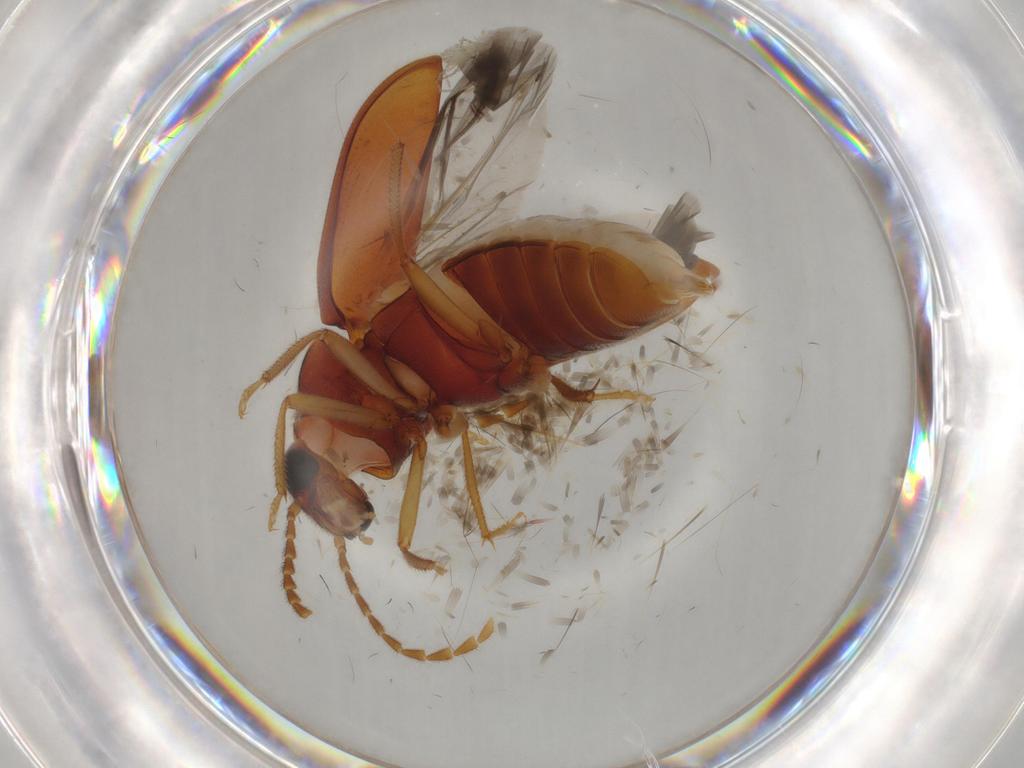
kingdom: Animalia
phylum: Arthropoda
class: Insecta
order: Coleoptera
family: Ptilodactylidae
